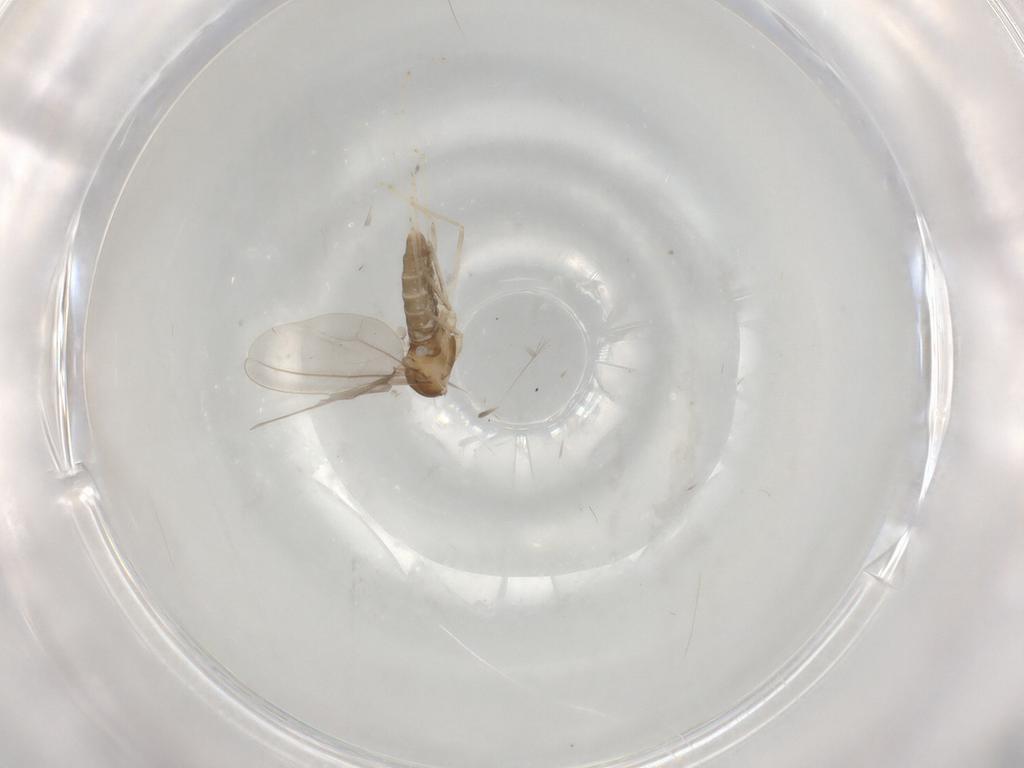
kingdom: Animalia
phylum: Arthropoda
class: Insecta
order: Diptera
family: Cecidomyiidae
